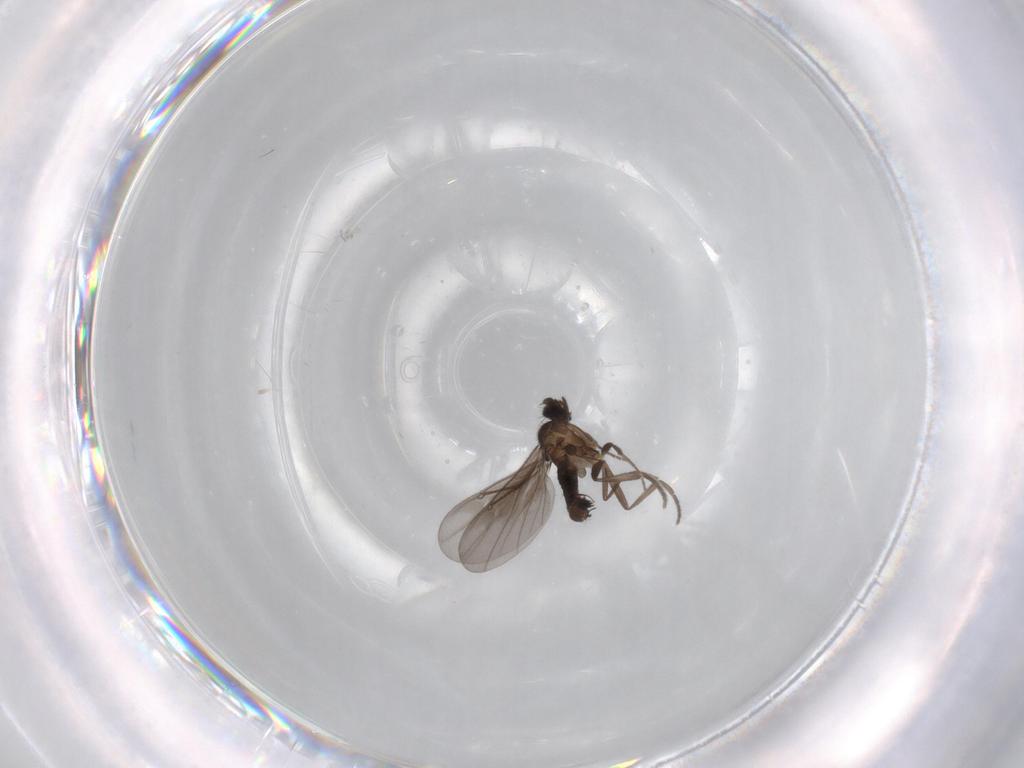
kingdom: Animalia
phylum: Arthropoda
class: Insecta
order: Diptera
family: Phoridae
